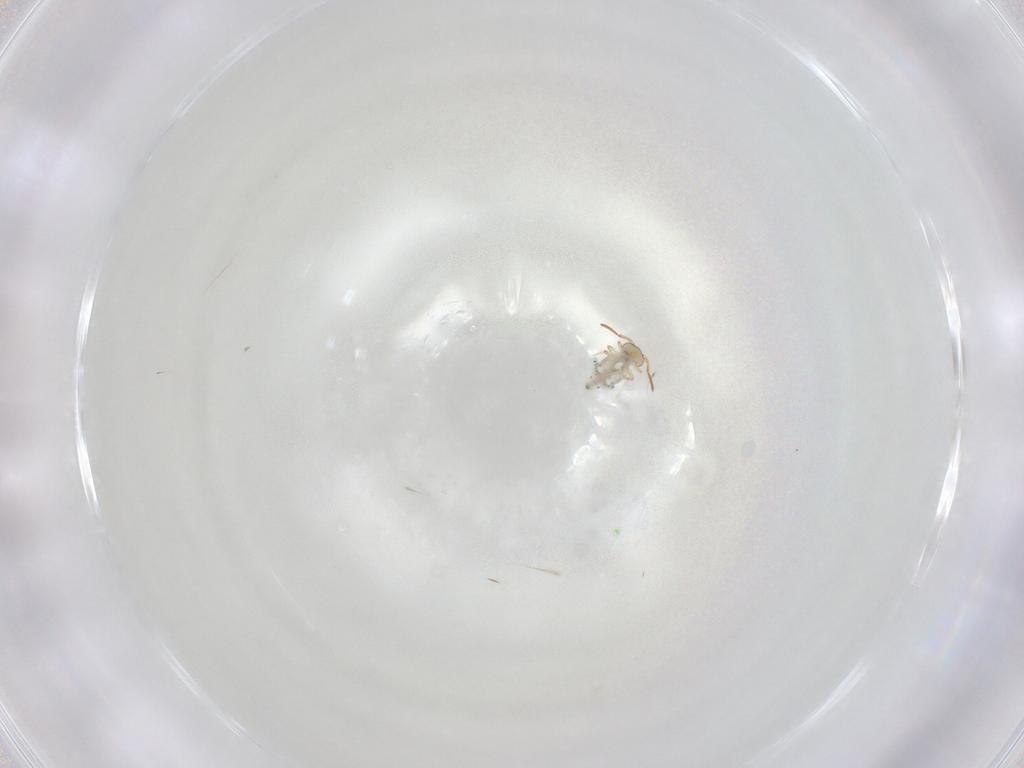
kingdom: Animalia
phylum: Arthropoda
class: Collembola
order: Symphypleona
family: Bourletiellidae
